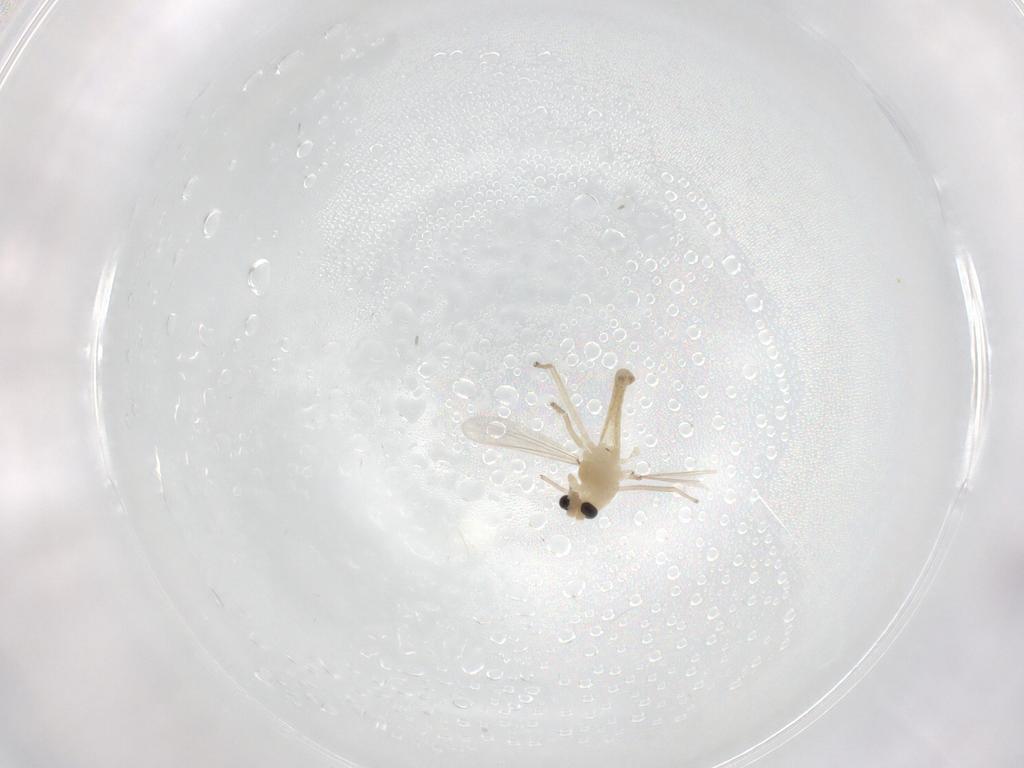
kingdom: Animalia
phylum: Arthropoda
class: Insecta
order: Diptera
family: Chironomidae
